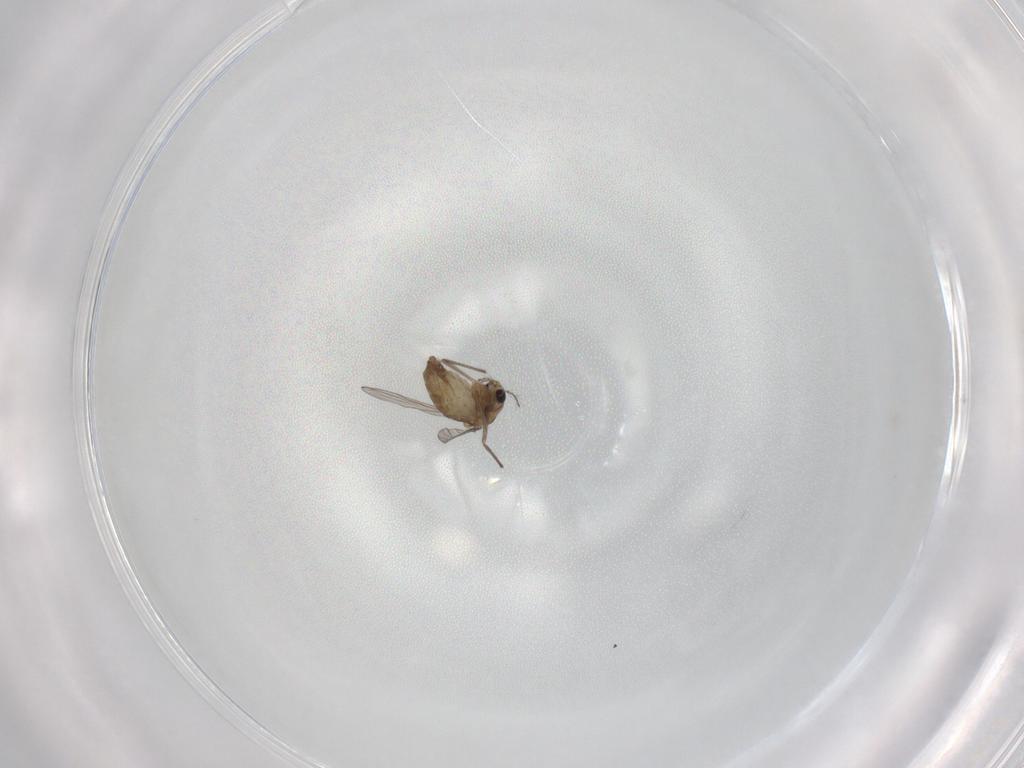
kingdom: Animalia
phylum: Arthropoda
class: Insecta
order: Diptera
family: Chironomidae
